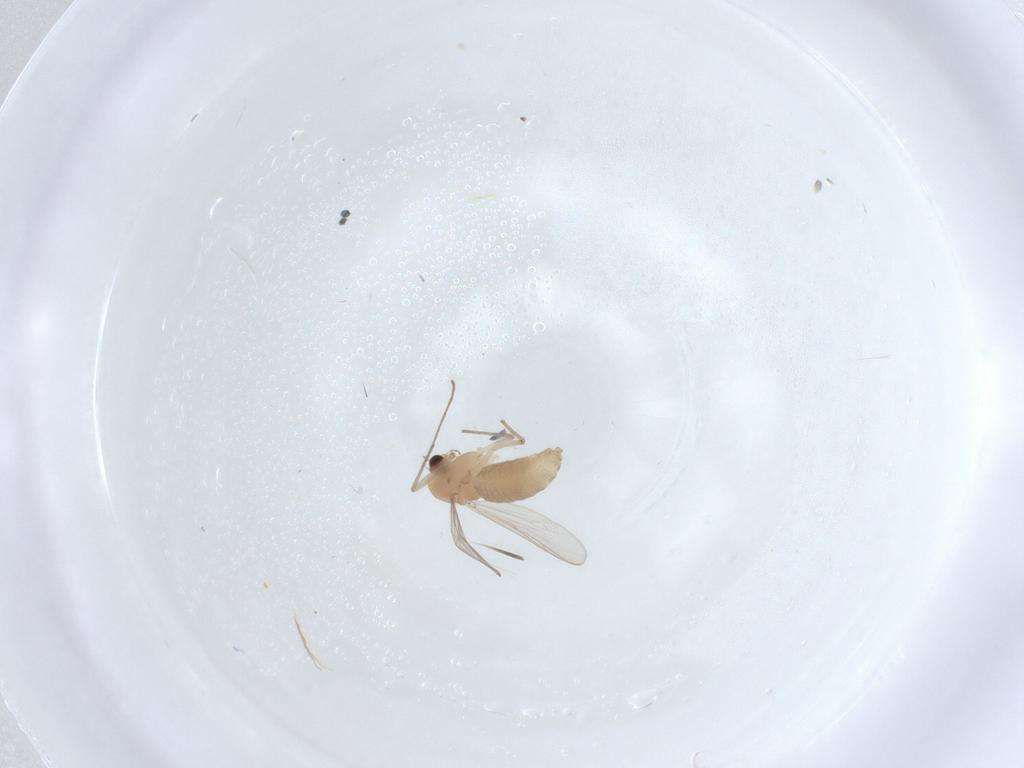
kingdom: Animalia
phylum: Arthropoda
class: Insecta
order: Diptera
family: Chironomidae
